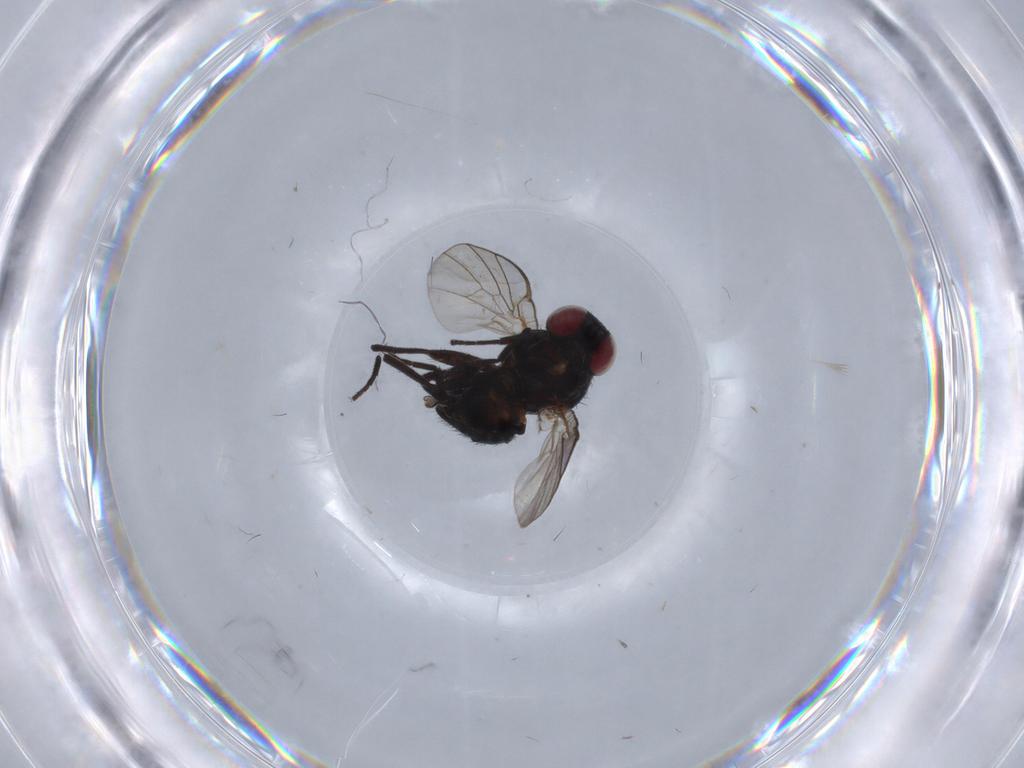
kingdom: Animalia
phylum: Arthropoda
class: Insecta
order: Diptera
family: Agromyzidae
